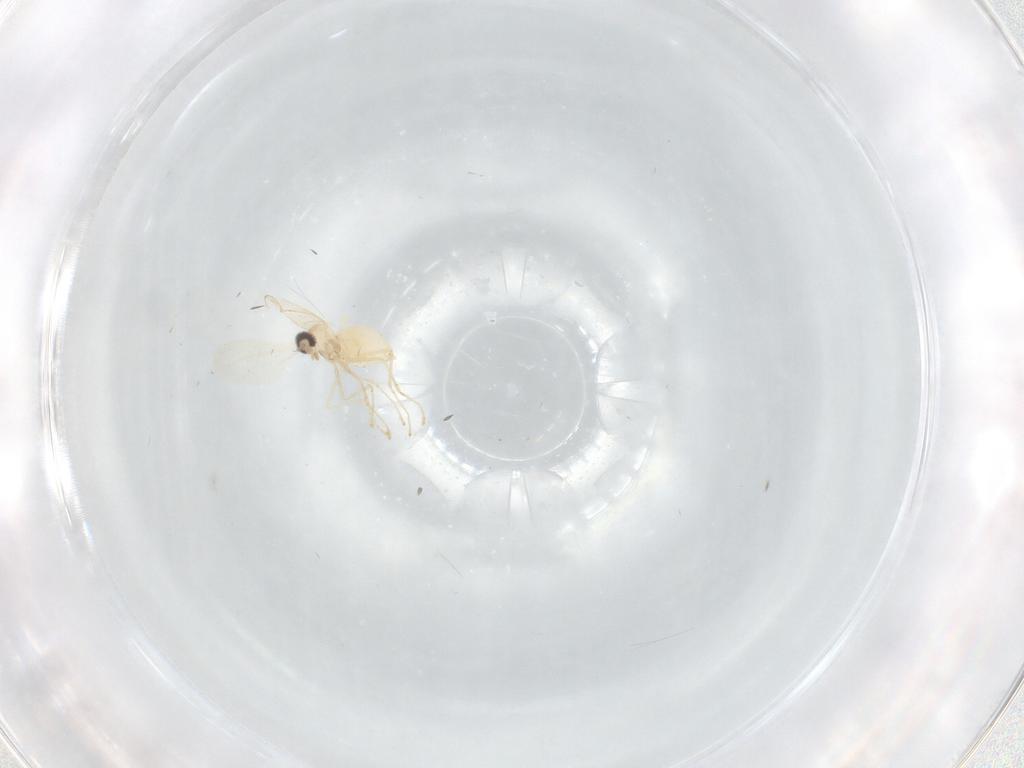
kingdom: Animalia
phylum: Arthropoda
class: Insecta
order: Diptera
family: Cecidomyiidae
